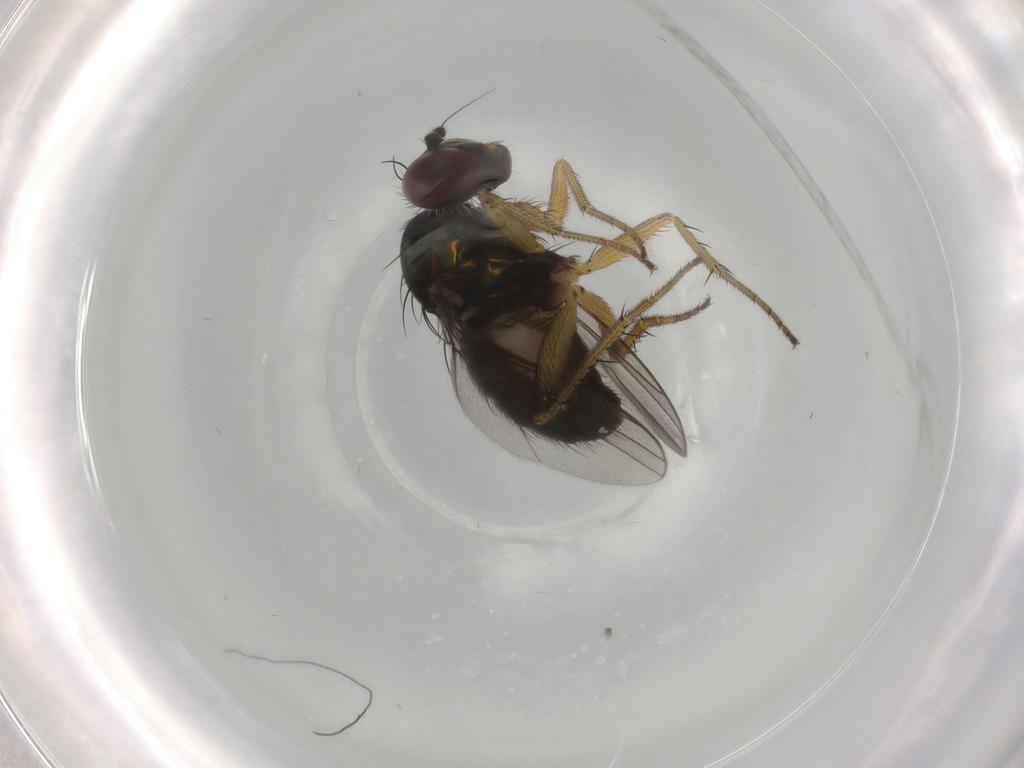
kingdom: Animalia
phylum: Arthropoda
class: Insecta
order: Diptera
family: Dolichopodidae
